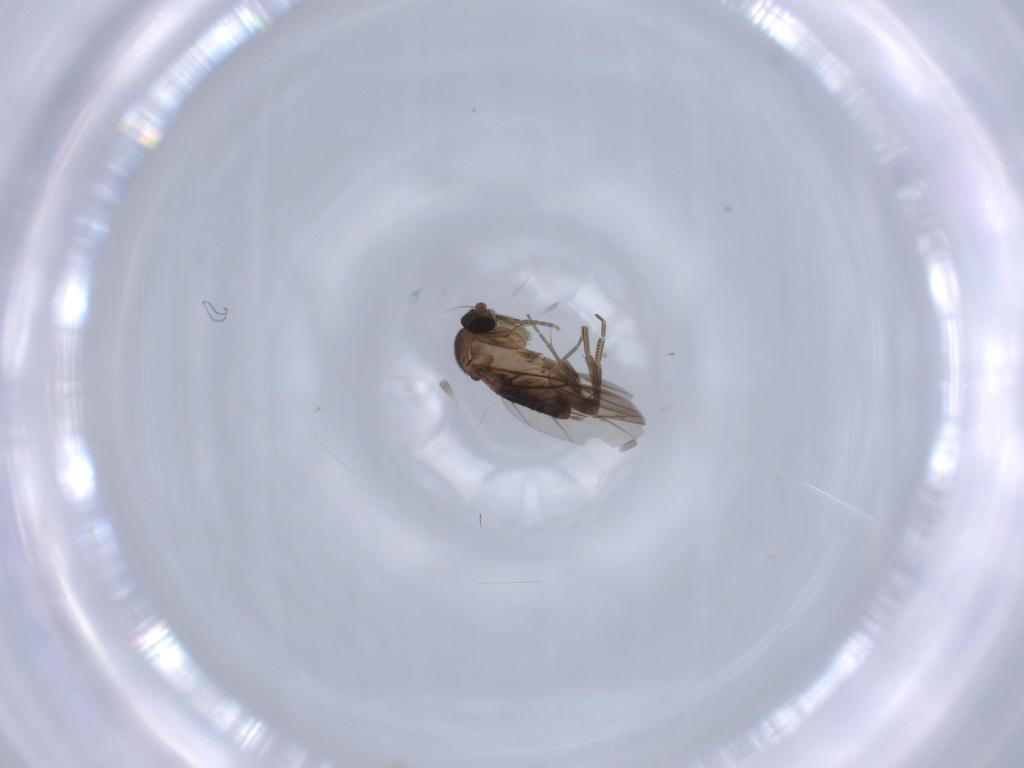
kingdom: Animalia
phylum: Arthropoda
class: Insecta
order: Diptera
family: Phoridae
